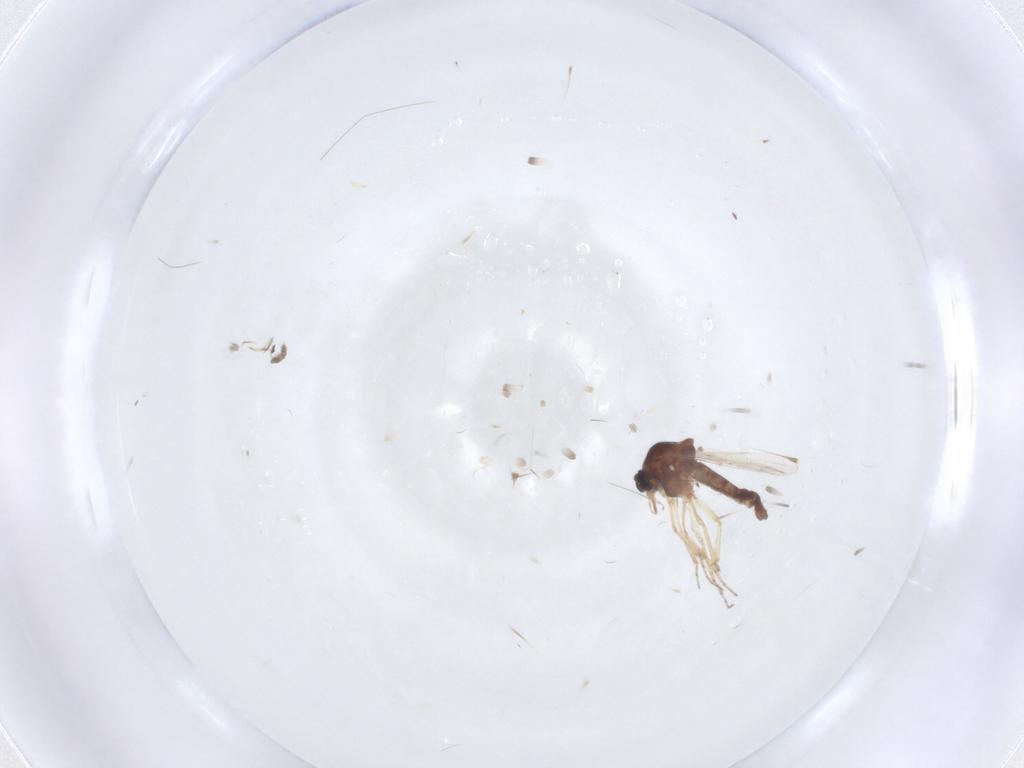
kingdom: Animalia
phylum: Arthropoda
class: Insecta
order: Diptera
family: Ceratopogonidae
